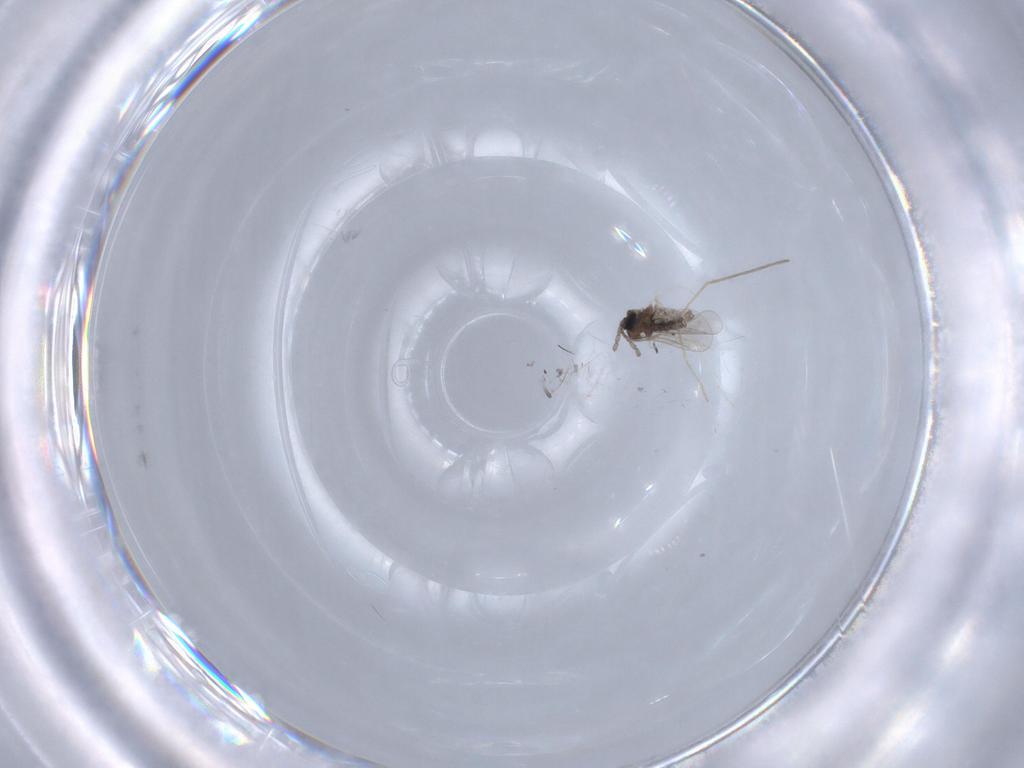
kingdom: Animalia
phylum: Arthropoda
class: Insecta
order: Diptera
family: Cecidomyiidae
